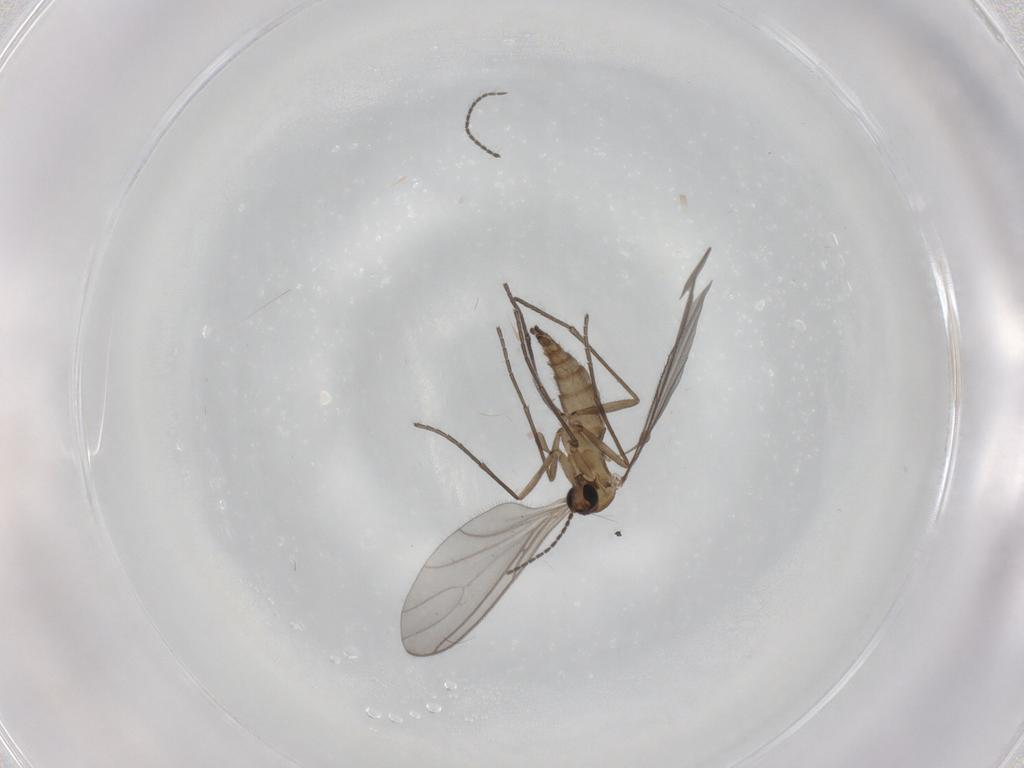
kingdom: Animalia
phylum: Arthropoda
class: Insecta
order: Diptera
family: Sciaridae
